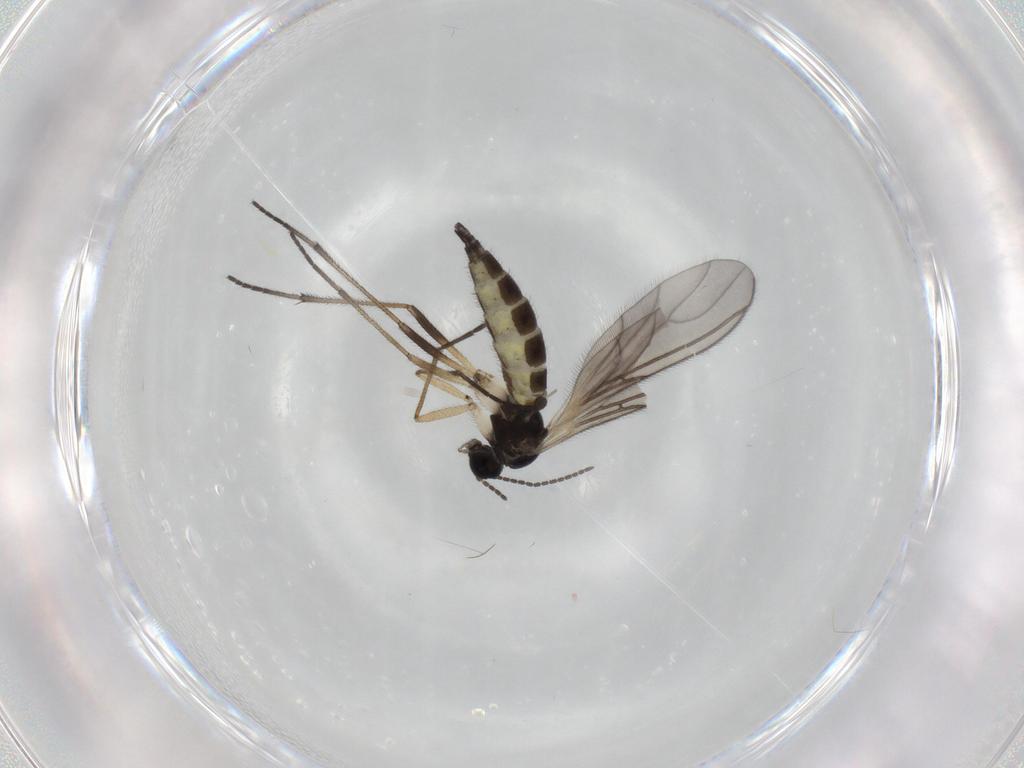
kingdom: Animalia
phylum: Arthropoda
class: Insecta
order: Diptera
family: Sciaridae
